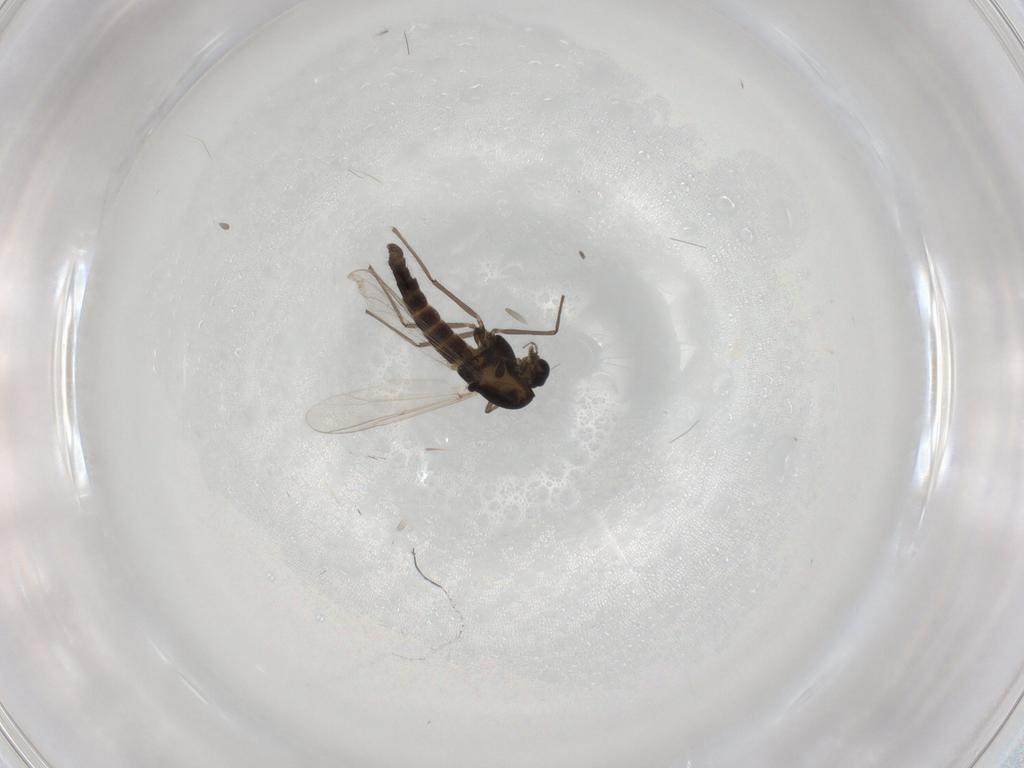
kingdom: Animalia
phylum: Arthropoda
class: Insecta
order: Diptera
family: Chironomidae
